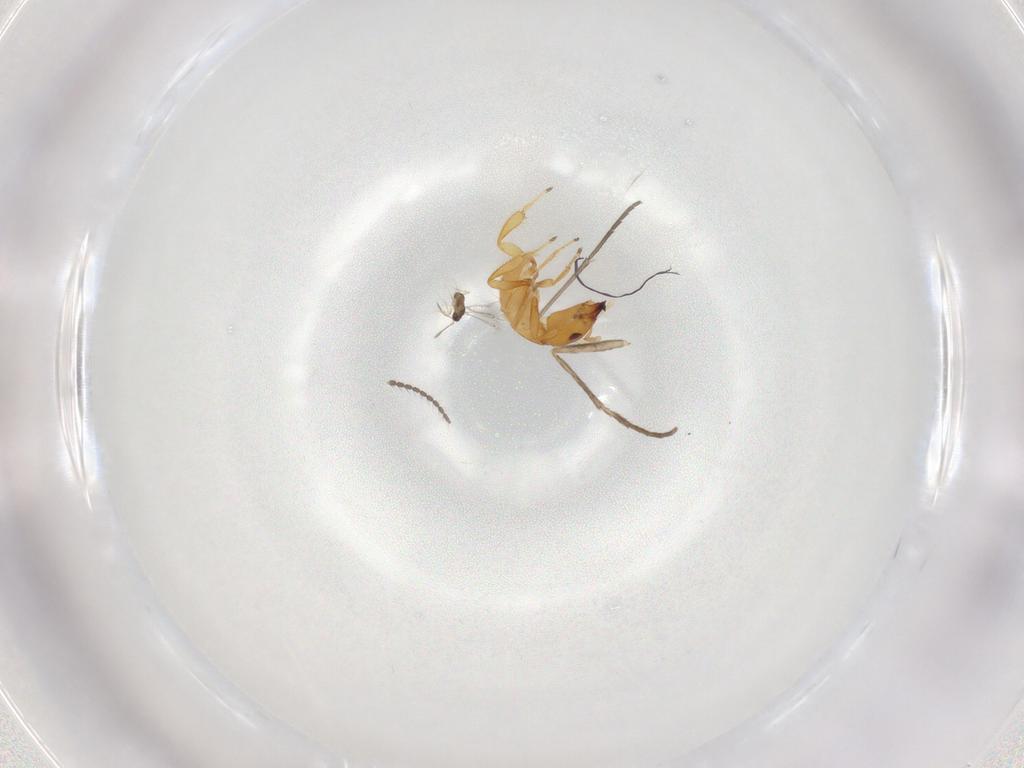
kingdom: Animalia
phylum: Arthropoda
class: Insecta
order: Hymenoptera
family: Pteromalidae
